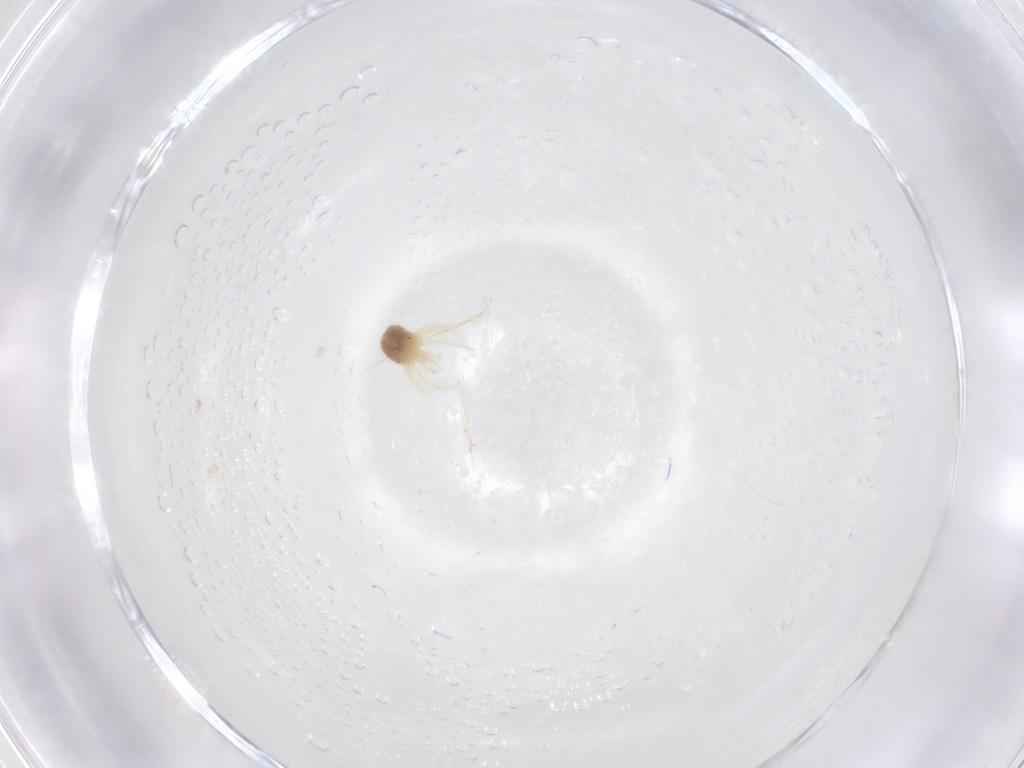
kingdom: Animalia
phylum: Arthropoda
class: Arachnida
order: Trombidiformes
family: Anystidae
